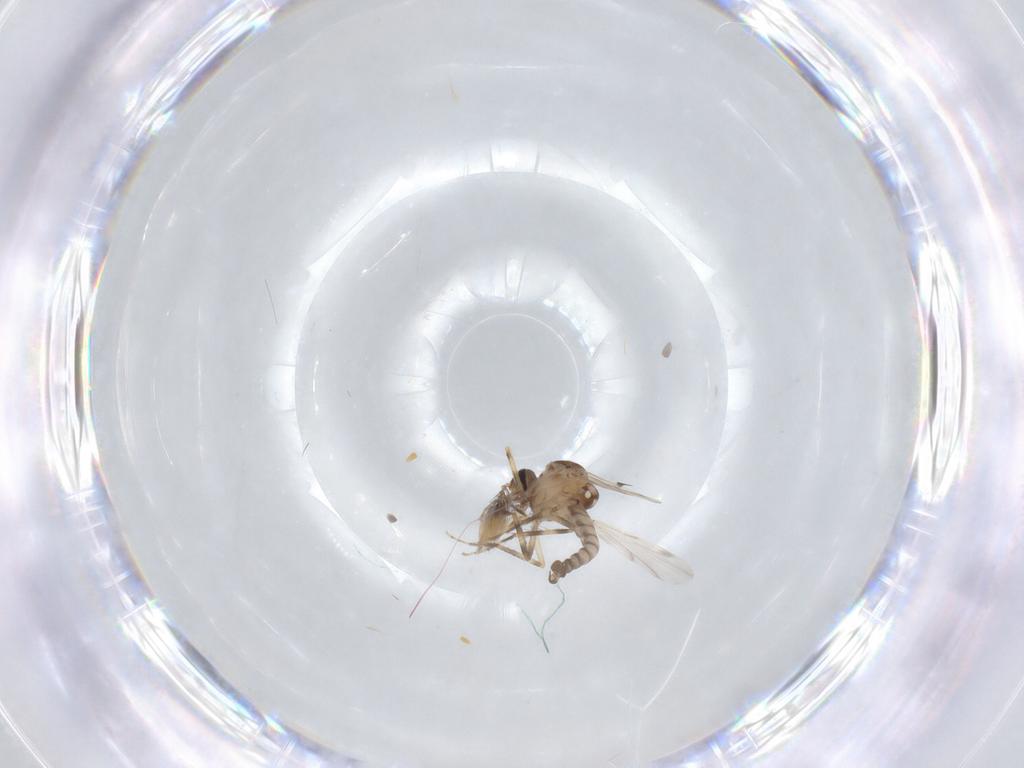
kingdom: Animalia
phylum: Arthropoda
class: Insecta
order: Diptera
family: Ceratopogonidae
